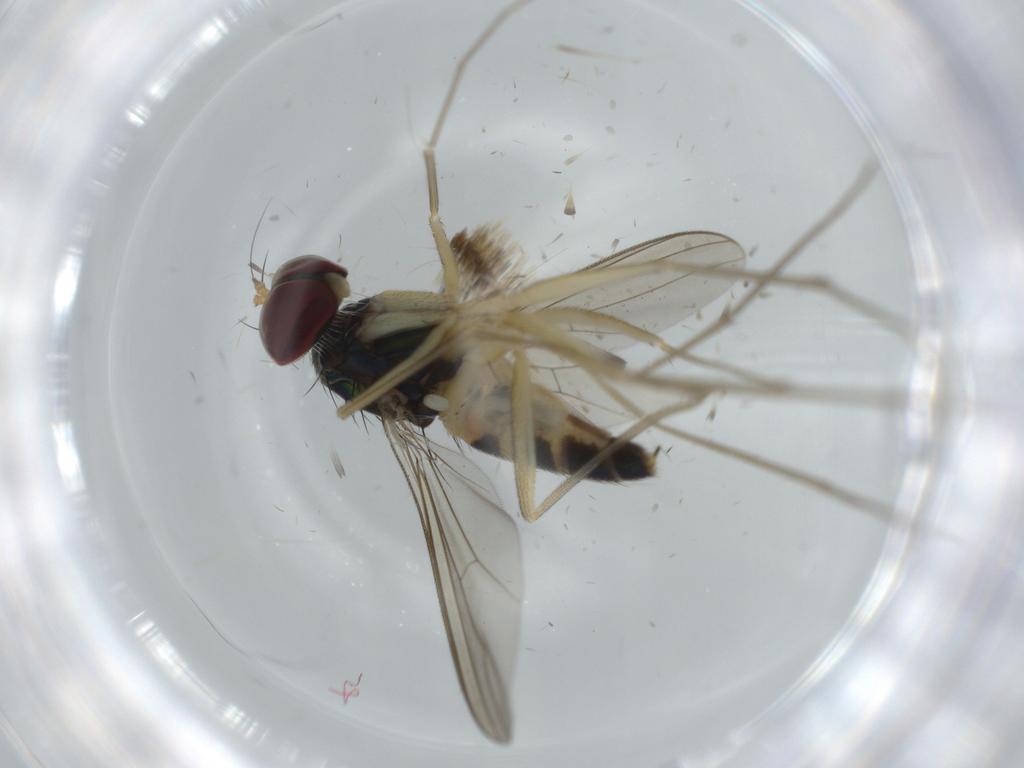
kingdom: Animalia
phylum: Arthropoda
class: Insecta
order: Diptera
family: Dolichopodidae
